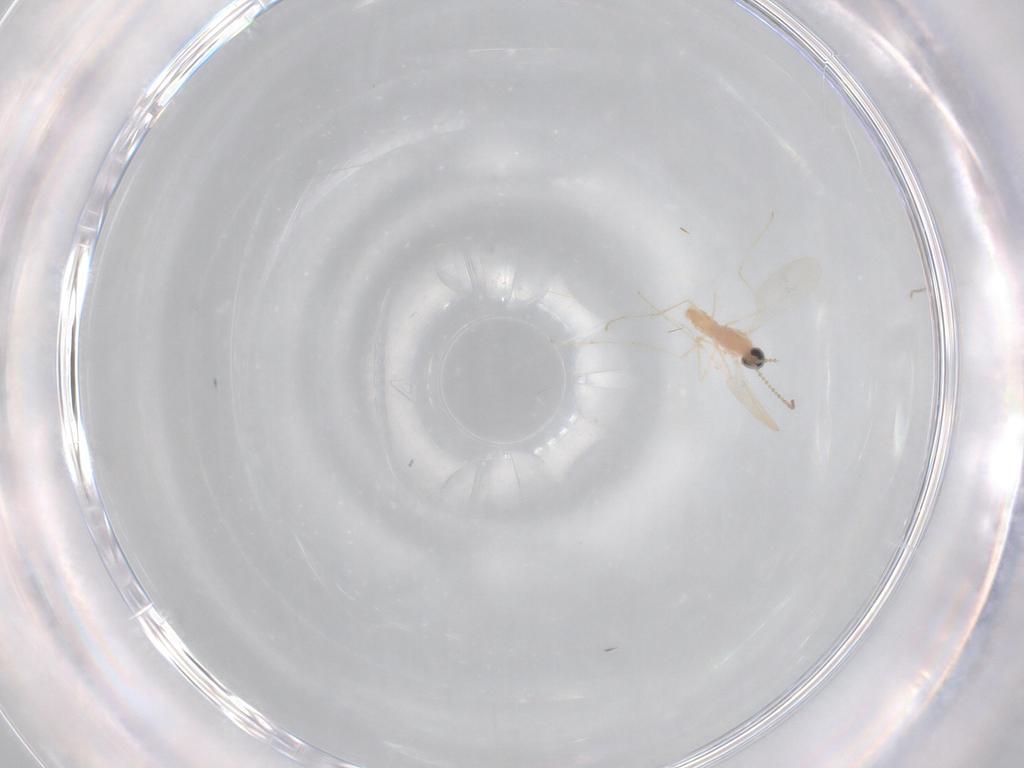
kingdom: Animalia
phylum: Arthropoda
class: Insecta
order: Diptera
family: Cecidomyiidae
